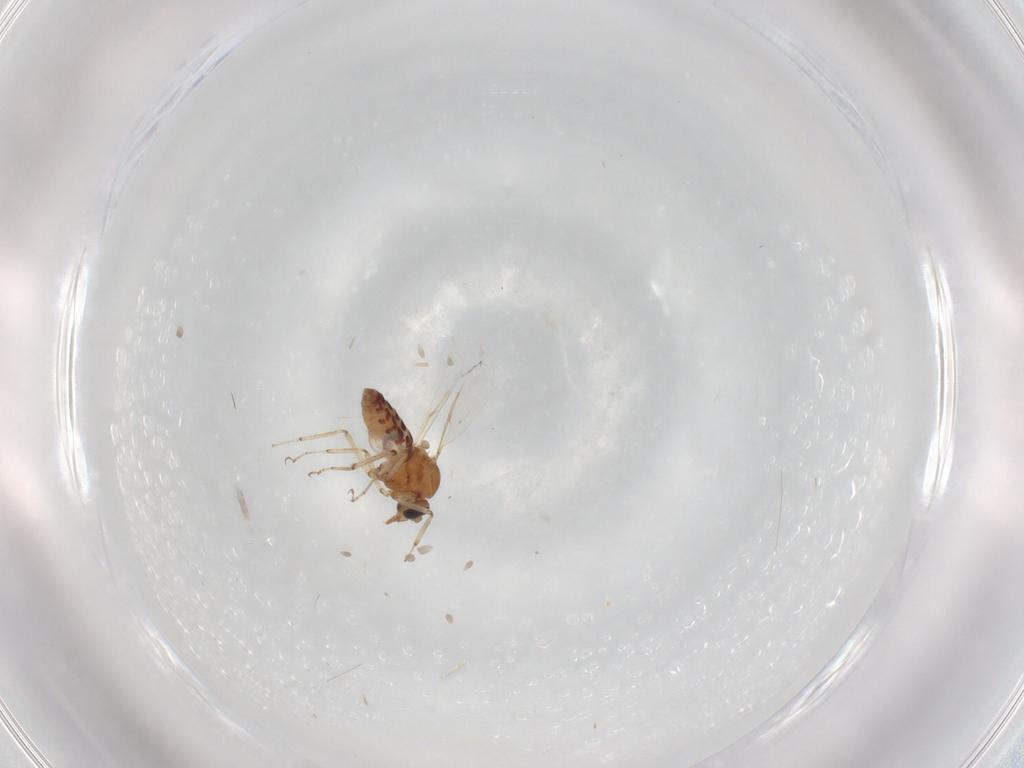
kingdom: Animalia
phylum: Arthropoda
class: Insecta
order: Diptera
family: Ceratopogonidae
